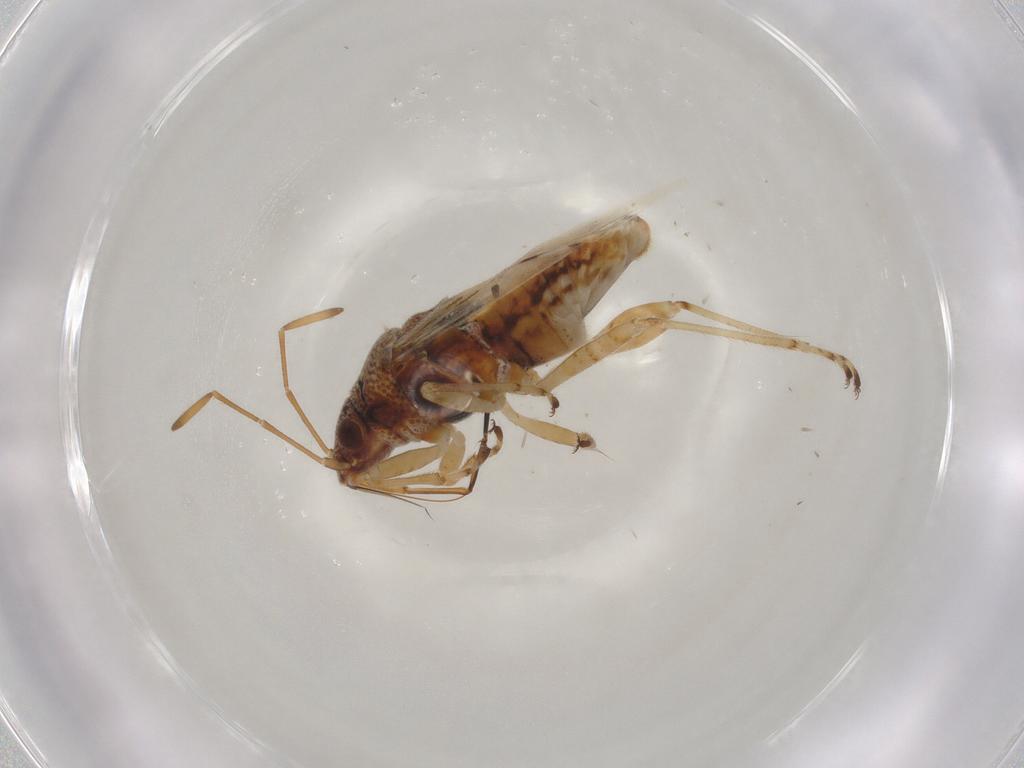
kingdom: Animalia
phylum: Arthropoda
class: Insecta
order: Hemiptera
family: Lygaeidae
